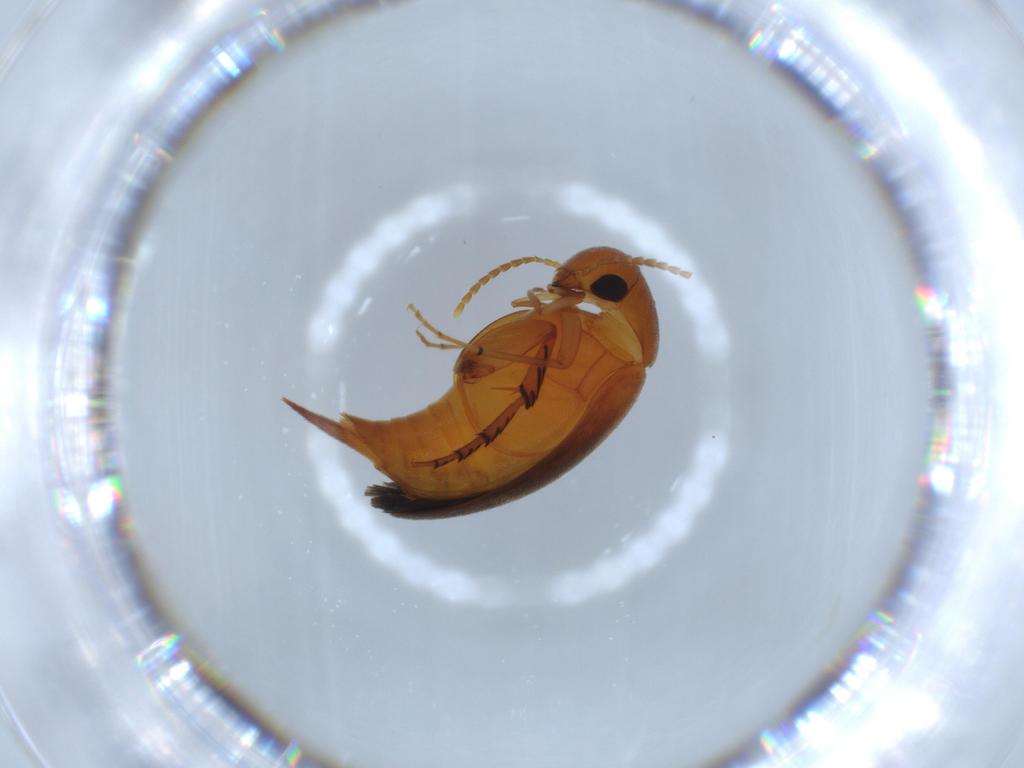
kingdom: Animalia
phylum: Arthropoda
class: Insecta
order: Coleoptera
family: Mordellidae
